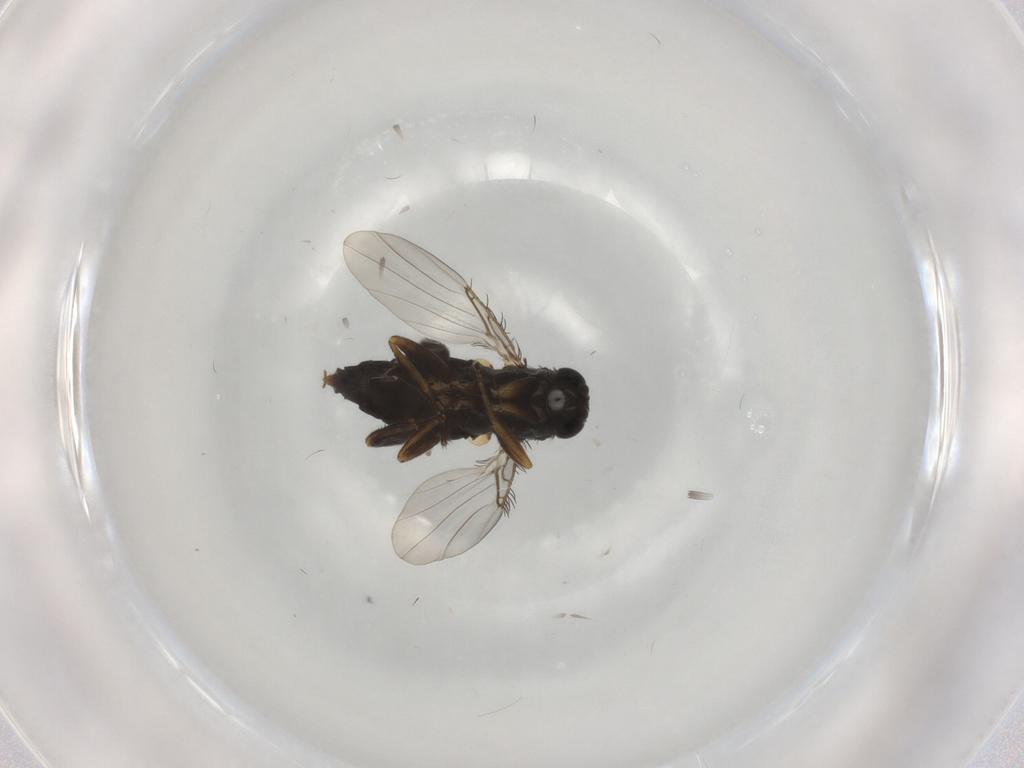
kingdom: Animalia
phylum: Arthropoda
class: Insecta
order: Diptera
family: Phoridae
